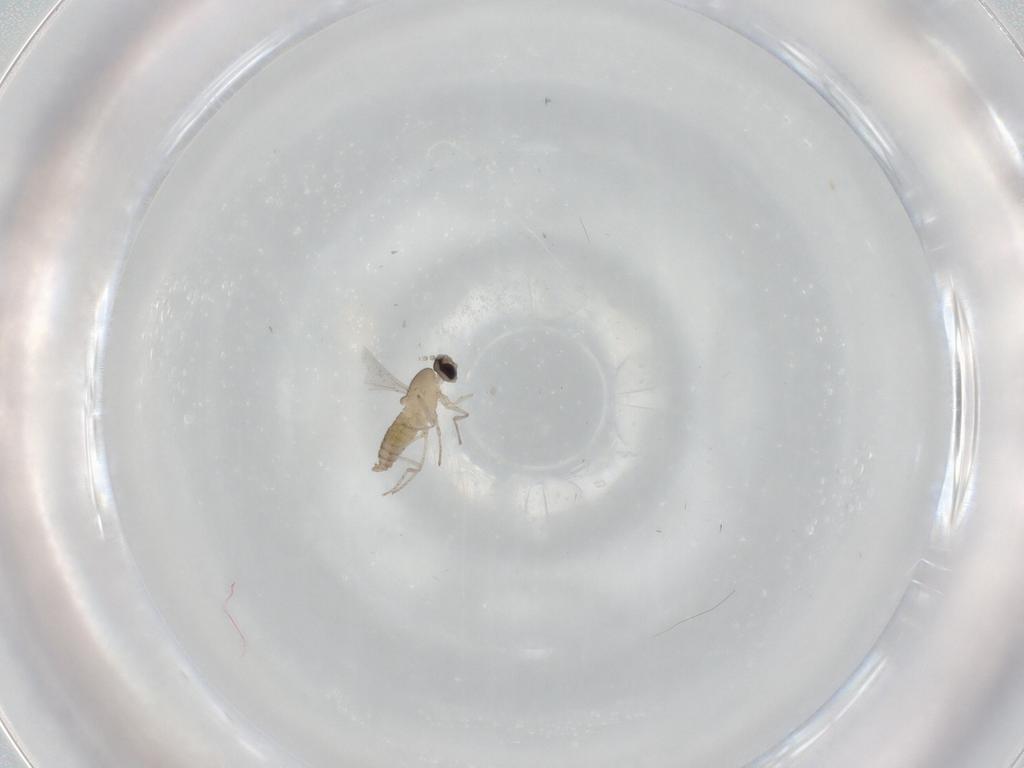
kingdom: Animalia
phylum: Arthropoda
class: Insecta
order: Diptera
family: Cecidomyiidae
